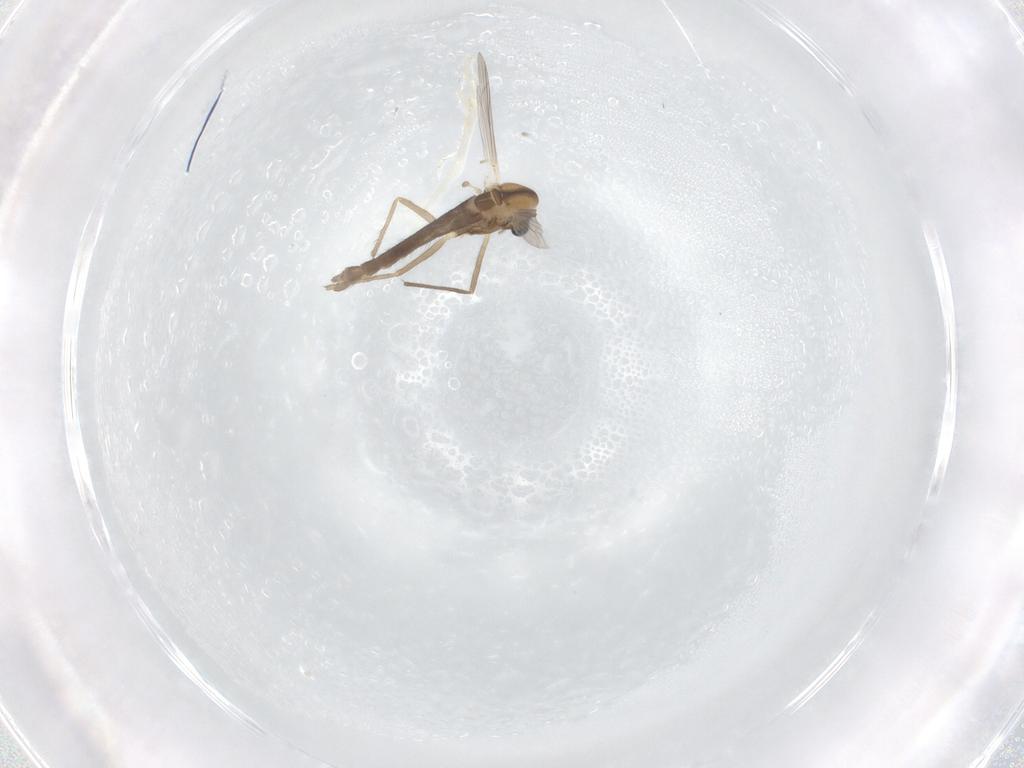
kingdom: Animalia
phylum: Arthropoda
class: Insecta
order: Diptera
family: Chironomidae
